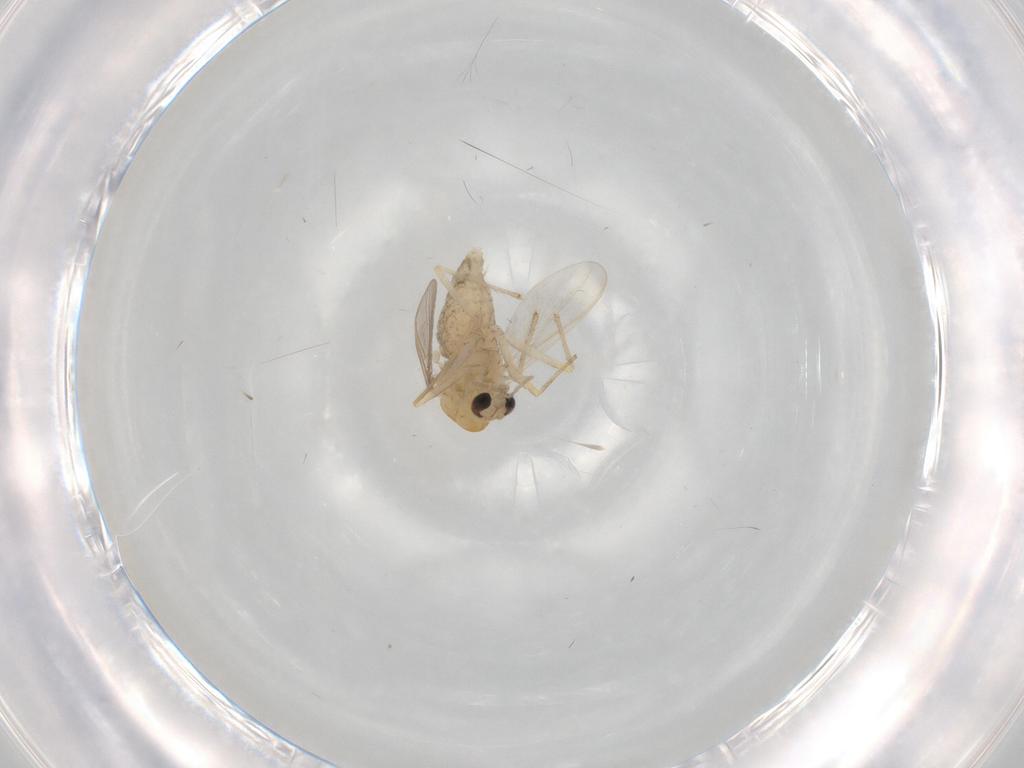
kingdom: Animalia
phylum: Arthropoda
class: Insecta
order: Diptera
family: Chironomidae
